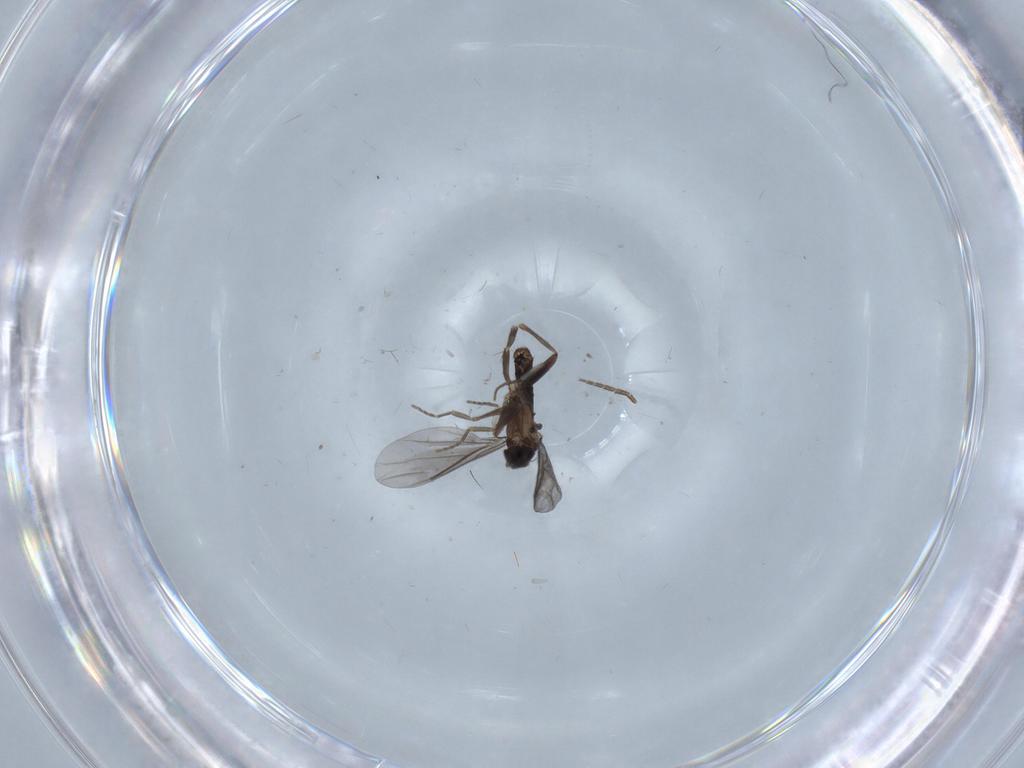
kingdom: Animalia
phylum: Arthropoda
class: Insecta
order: Diptera
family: Phoridae
